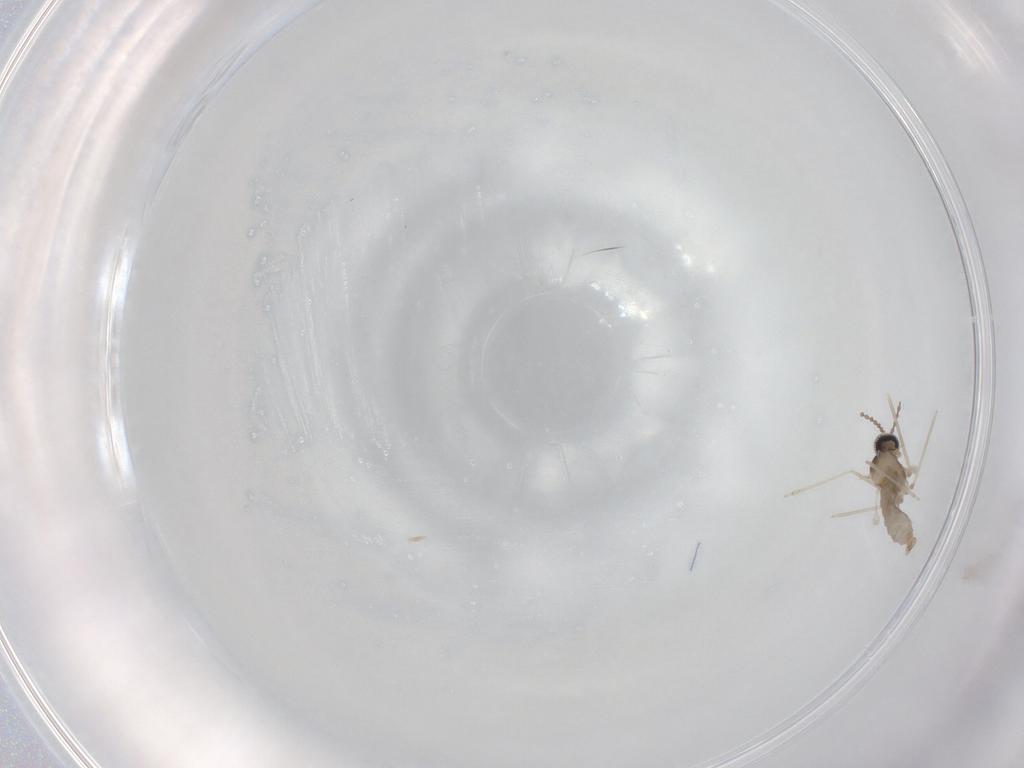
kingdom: Animalia
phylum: Arthropoda
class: Insecta
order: Diptera
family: Cecidomyiidae
